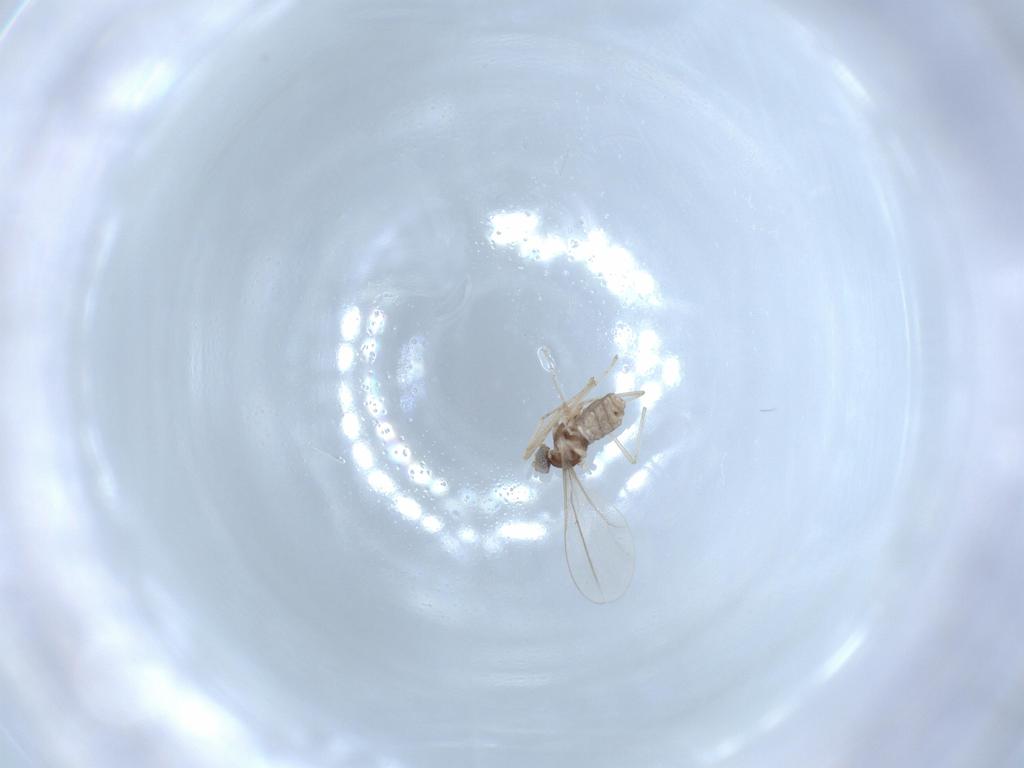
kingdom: Animalia
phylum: Arthropoda
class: Insecta
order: Diptera
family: Cecidomyiidae
